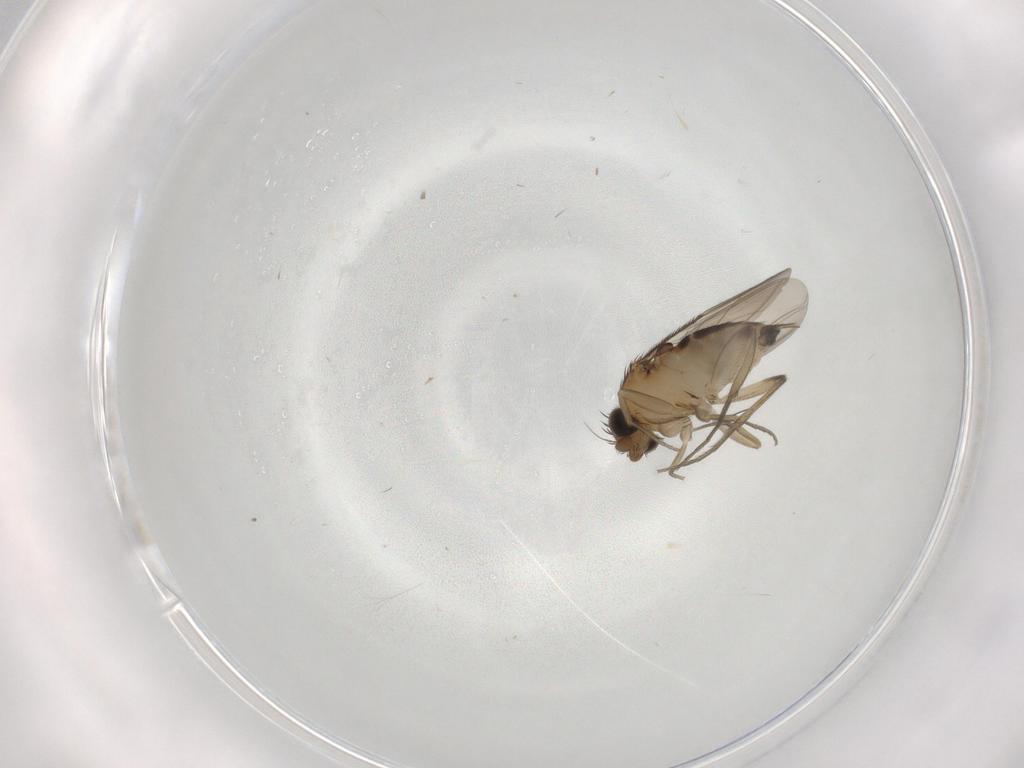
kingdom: Animalia
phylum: Arthropoda
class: Insecta
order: Diptera
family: Phoridae
